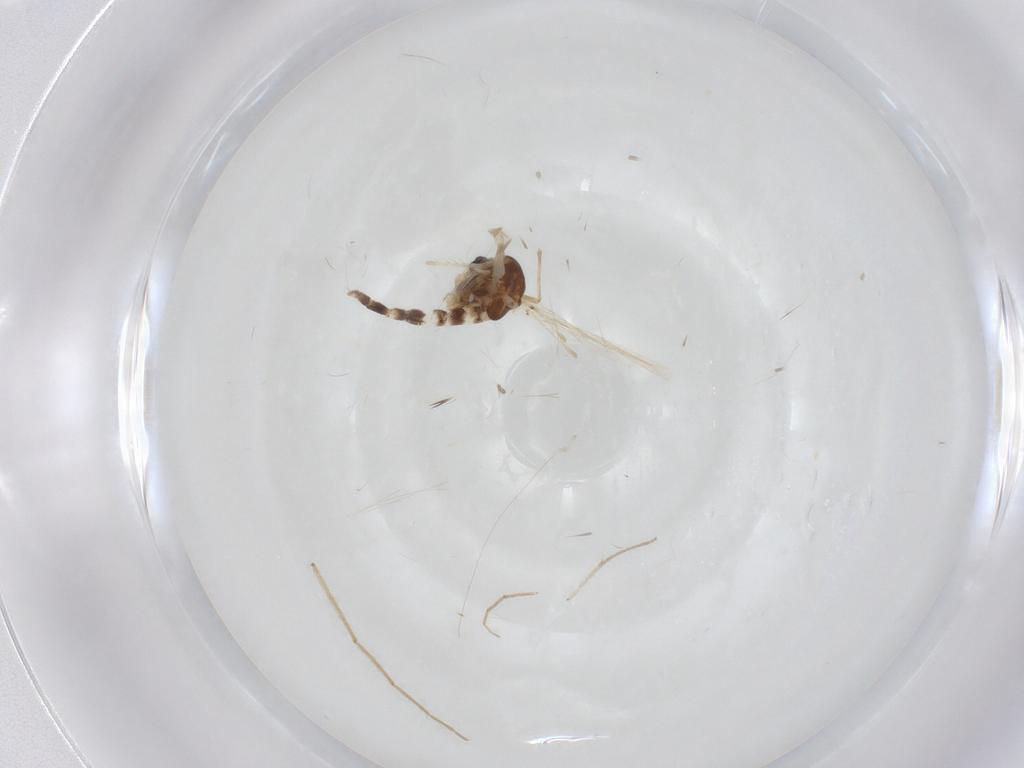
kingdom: Animalia
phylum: Arthropoda
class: Insecta
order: Diptera
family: Chironomidae
